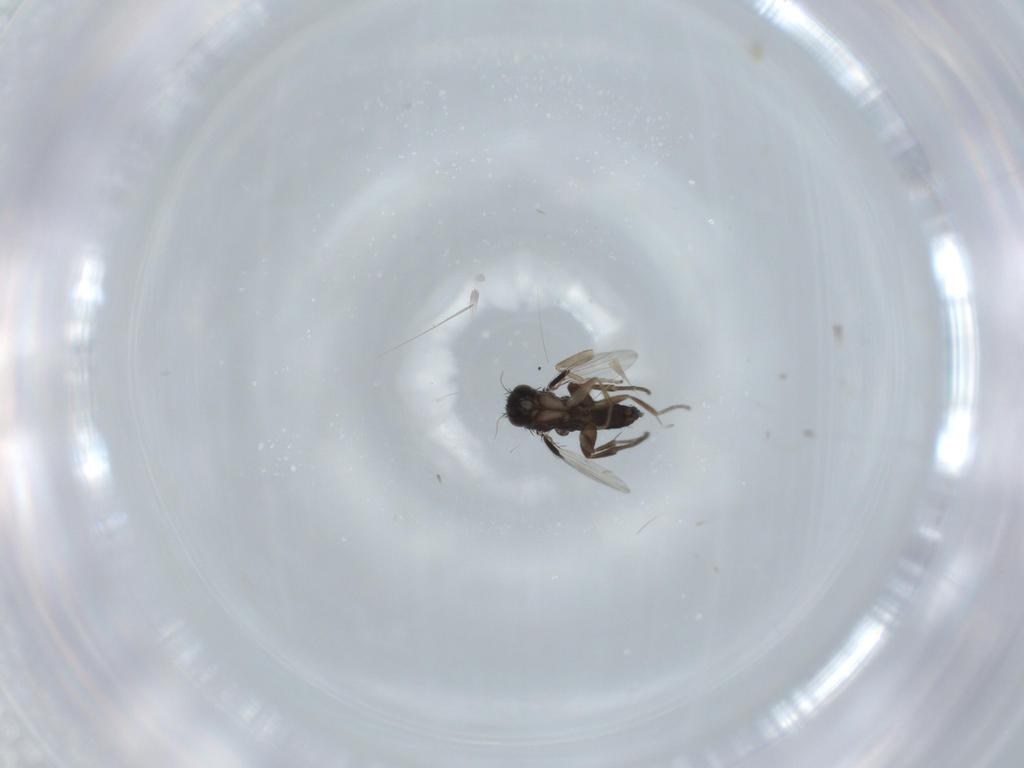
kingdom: Animalia
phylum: Arthropoda
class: Insecta
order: Diptera
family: Phoridae
